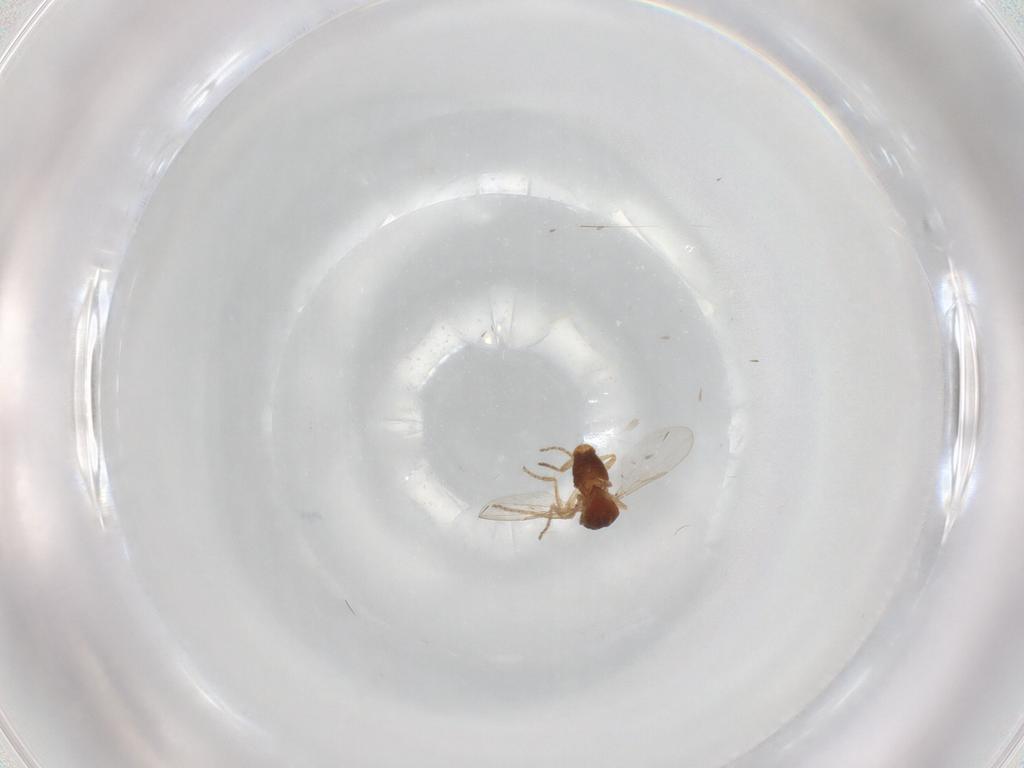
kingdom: Animalia
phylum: Arthropoda
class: Insecta
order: Diptera
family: Ceratopogonidae
